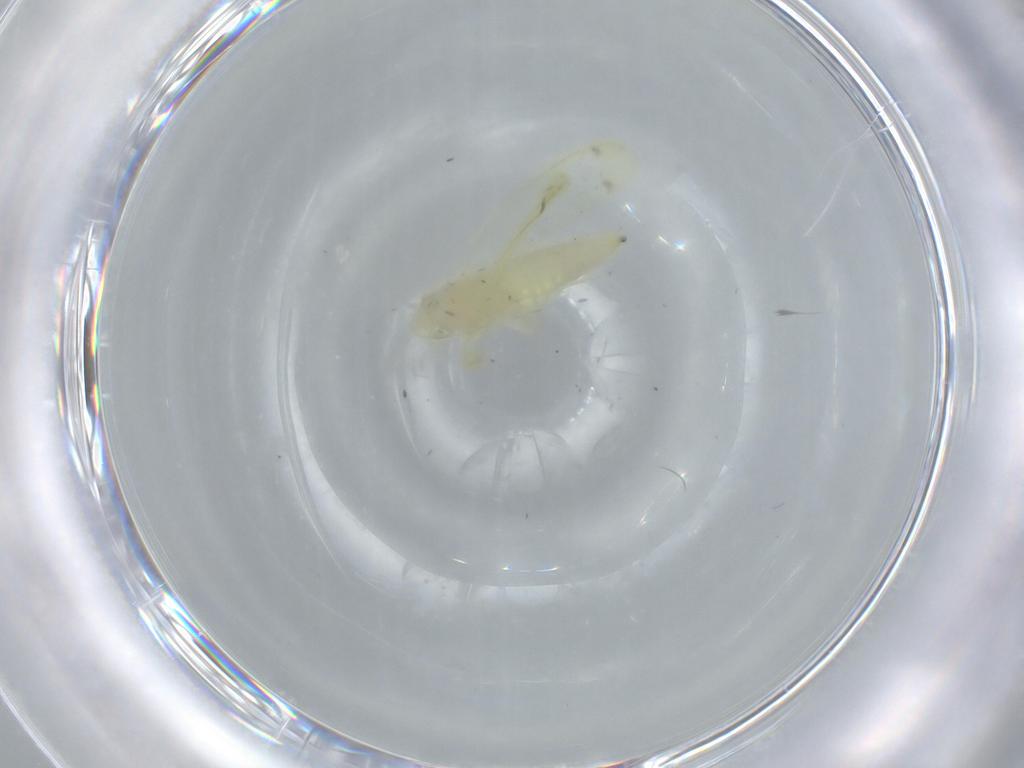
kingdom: Animalia
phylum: Arthropoda
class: Insecta
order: Hemiptera
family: Cicadellidae
